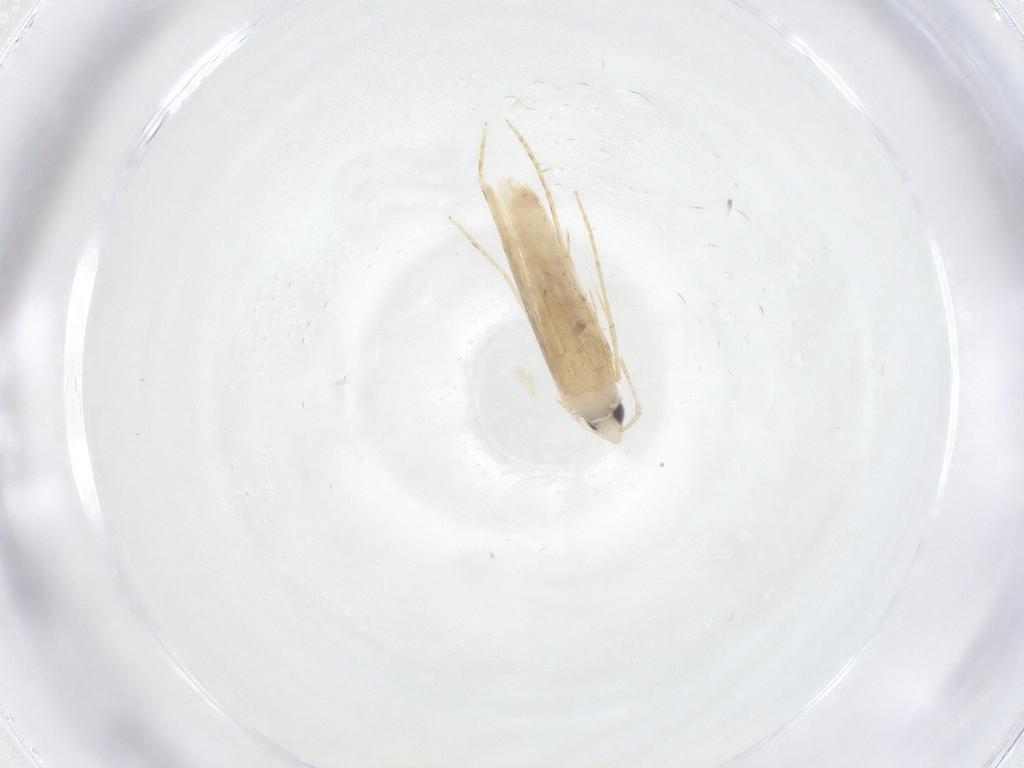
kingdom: Animalia
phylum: Arthropoda
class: Insecta
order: Lepidoptera
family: Tineidae
